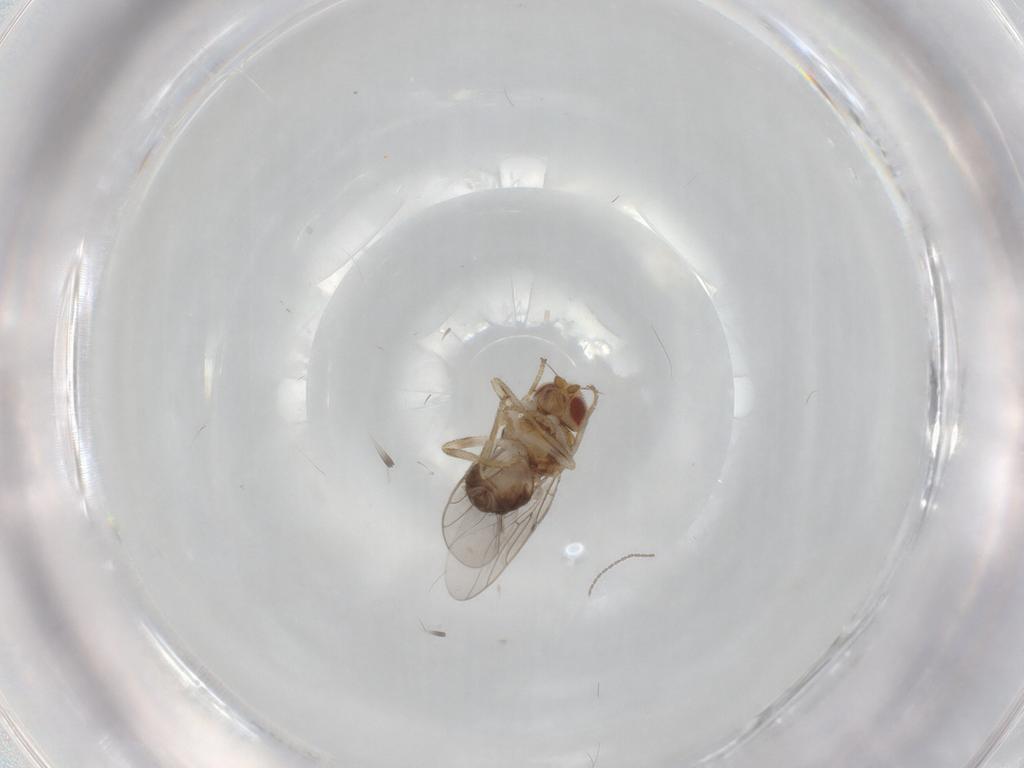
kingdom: Animalia
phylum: Arthropoda
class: Insecta
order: Diptera
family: Chloropidae
